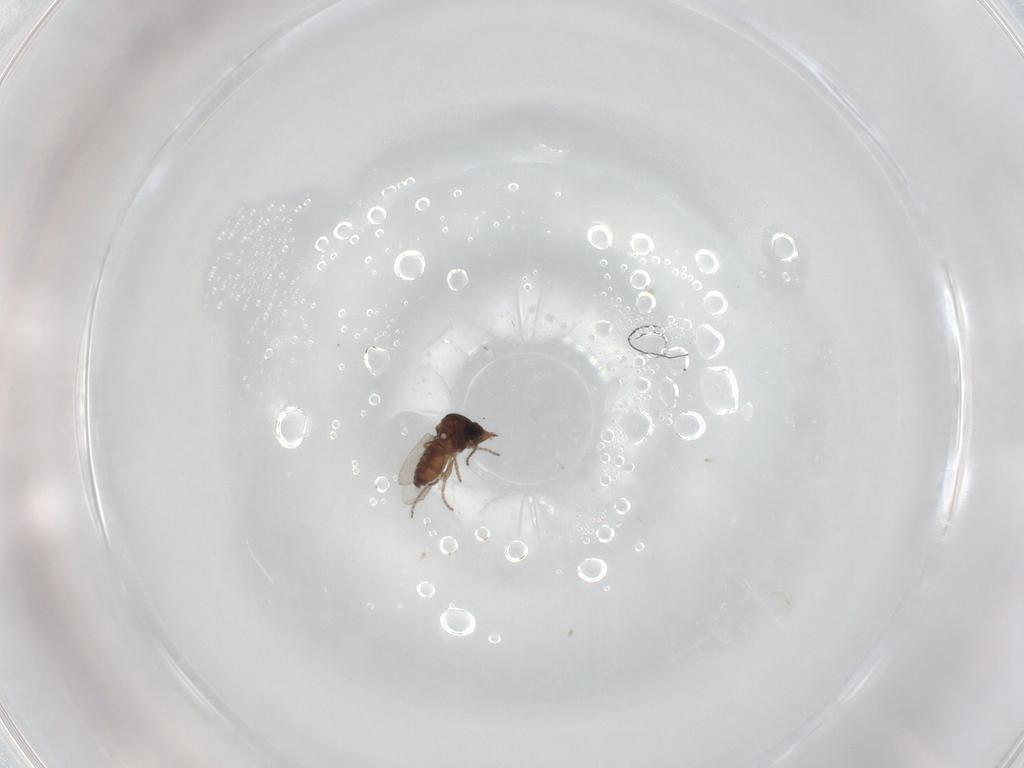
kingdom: Animalia
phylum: Arthropoda
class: Insecta
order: Diptera
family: Ceratopogonidae
